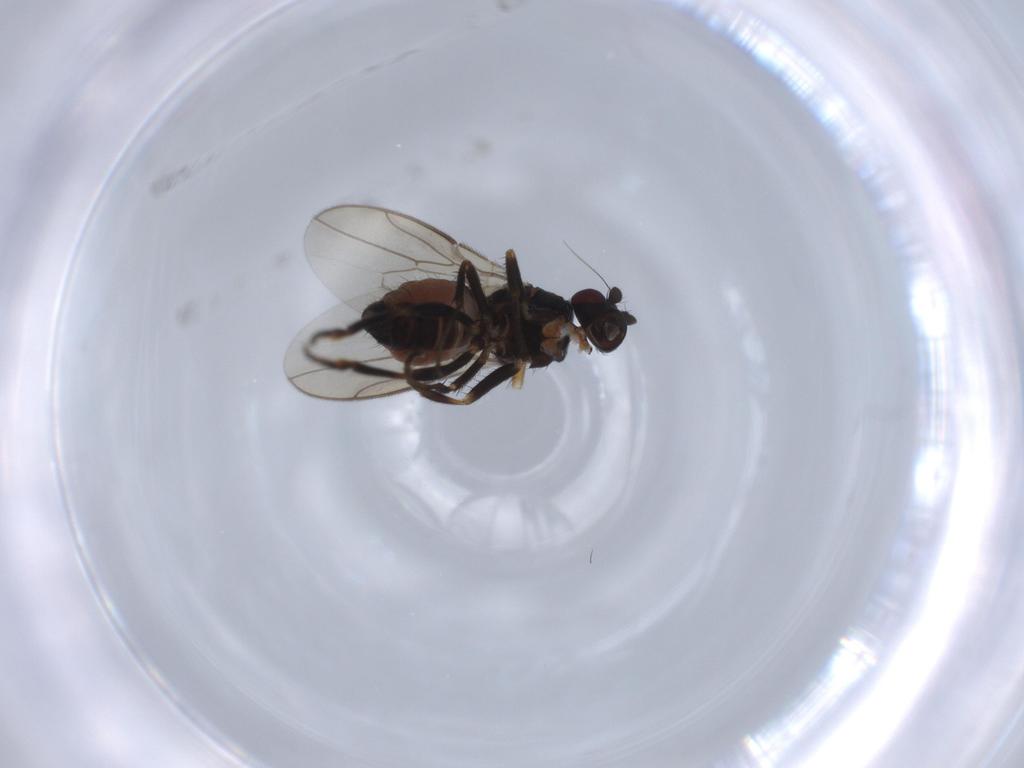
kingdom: Animalia
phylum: Arthropoda
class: Insecta
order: Diptera
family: Sphaeroceridae
